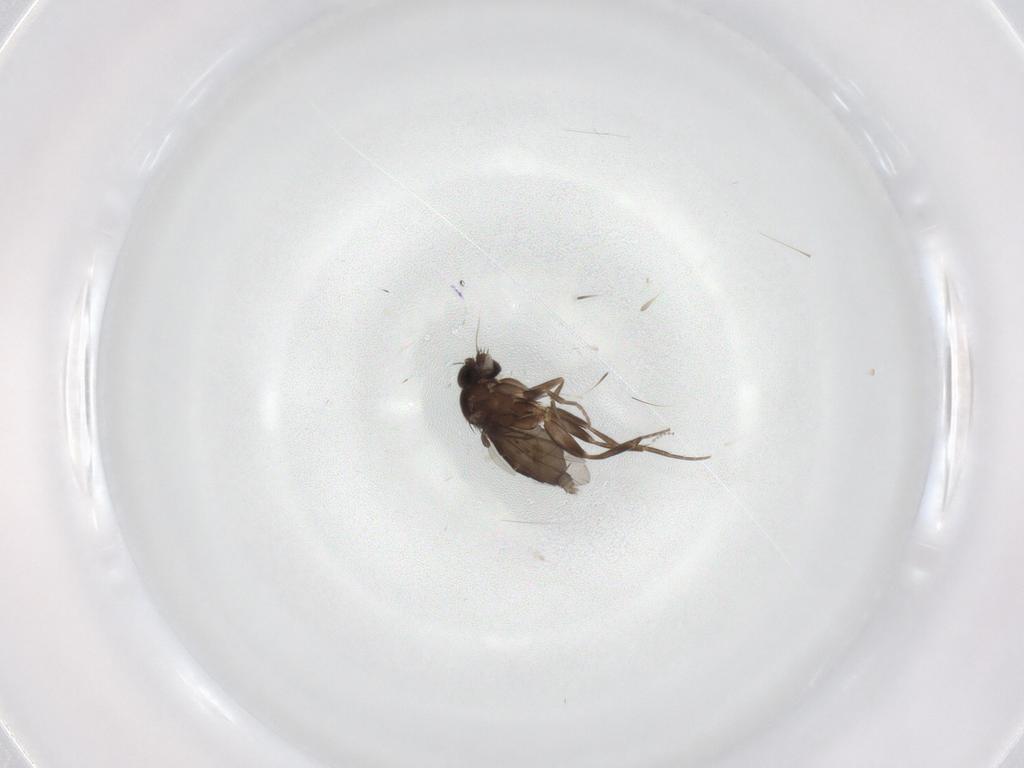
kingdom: Animalia
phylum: Arthropoda
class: Insecta
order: Diptera
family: Phoridae
